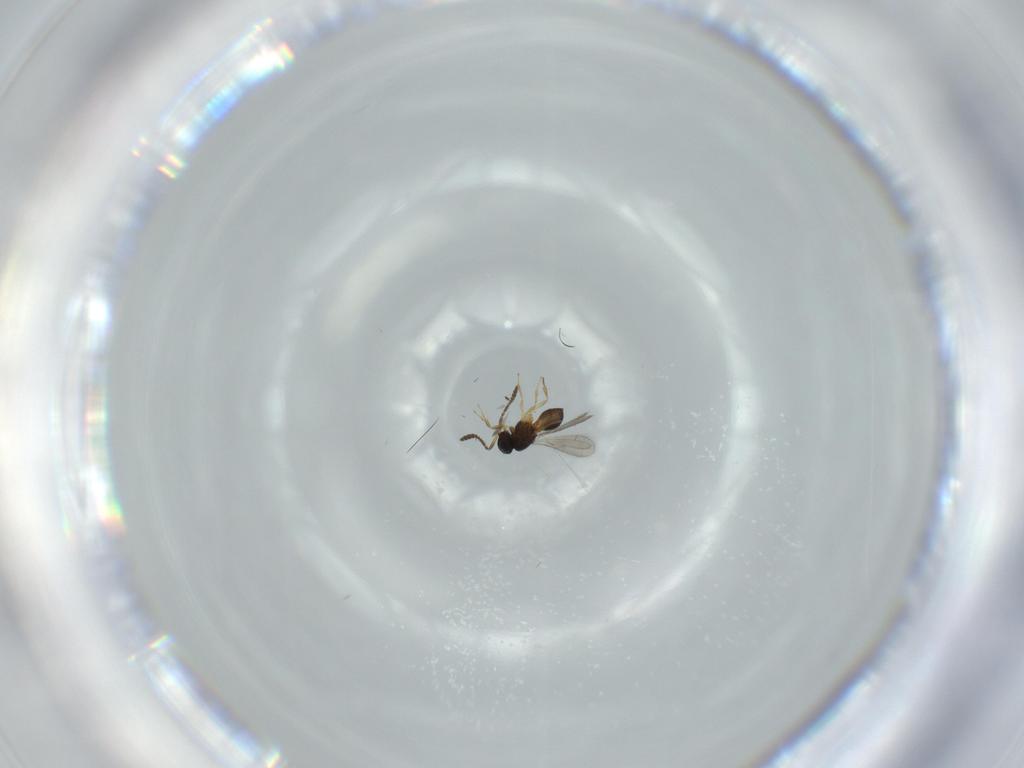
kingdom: Animalia
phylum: Arthropoda
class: Insecta
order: Hymenoptera
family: Scelionidae
